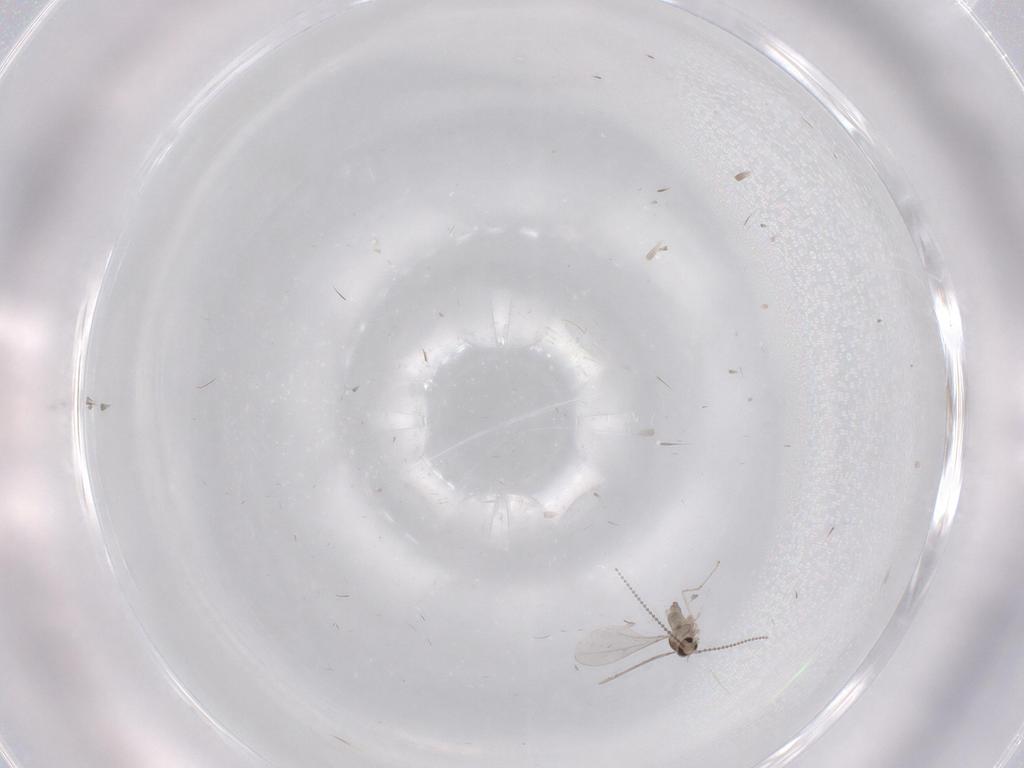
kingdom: Animalia
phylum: Arthropoda
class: Insecta
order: Diptera
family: Cecidomyiidae
